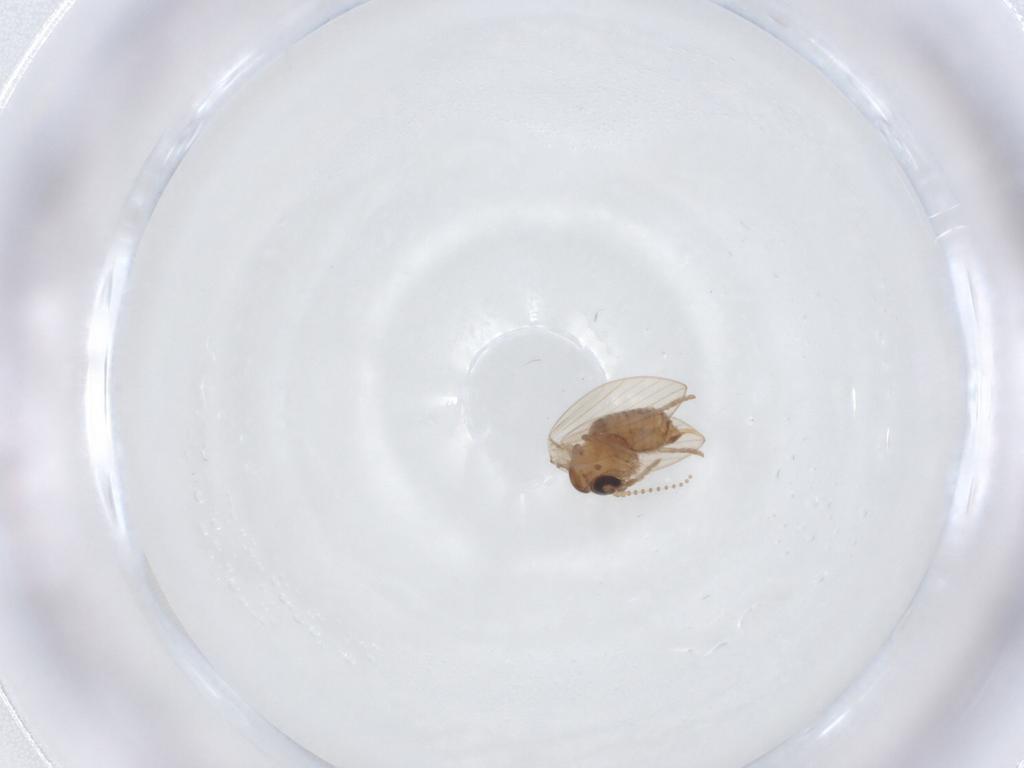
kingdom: Animalia
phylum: Arthropoda
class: Insecta
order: Diptera
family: Psychodidae
